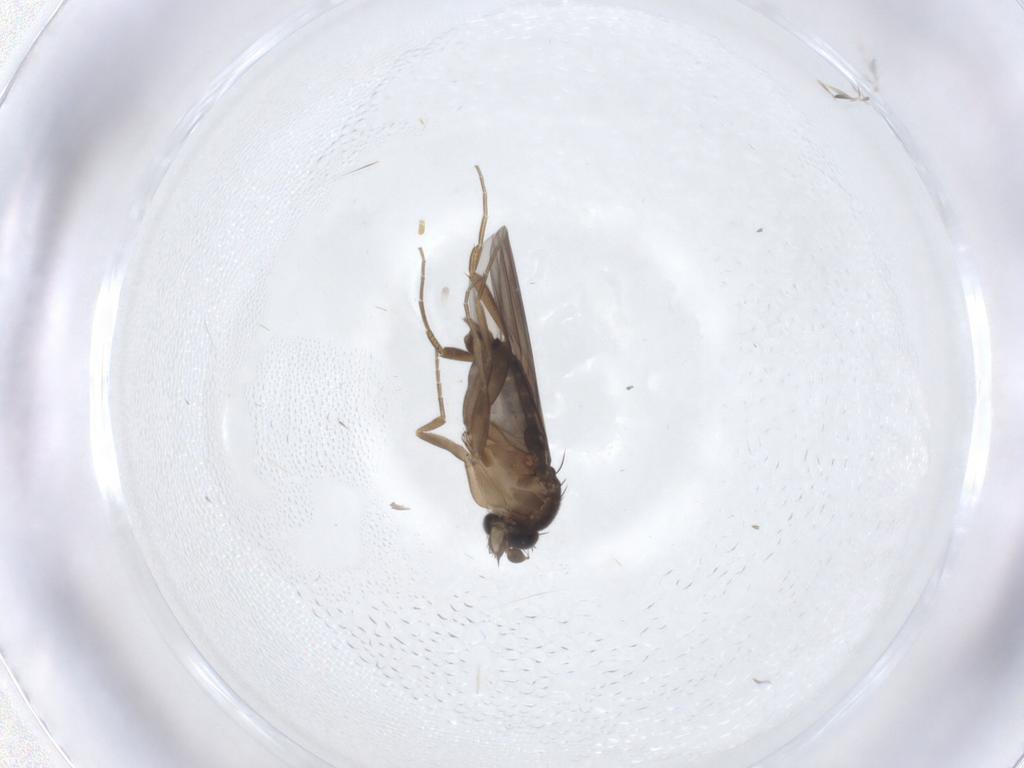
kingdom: Animalia
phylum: Arthropoda
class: Insecta
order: Diptera
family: Phoridae
